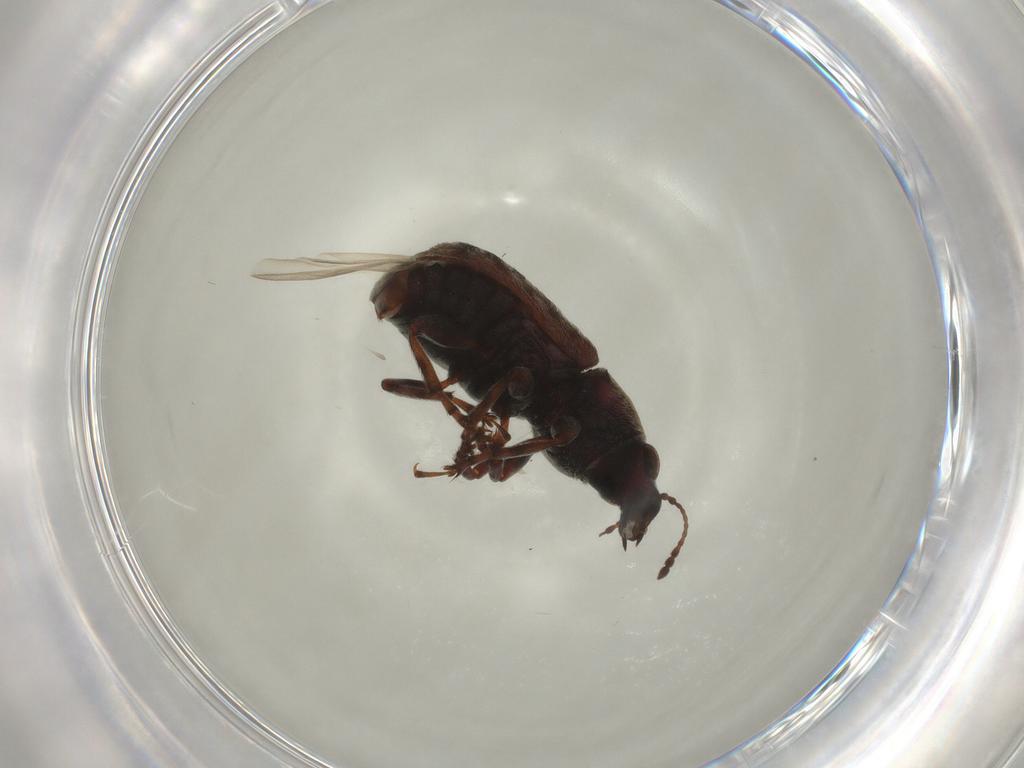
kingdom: Animalia
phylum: Arthropoda
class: Insecta
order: Coleoptera
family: Anthribidae
